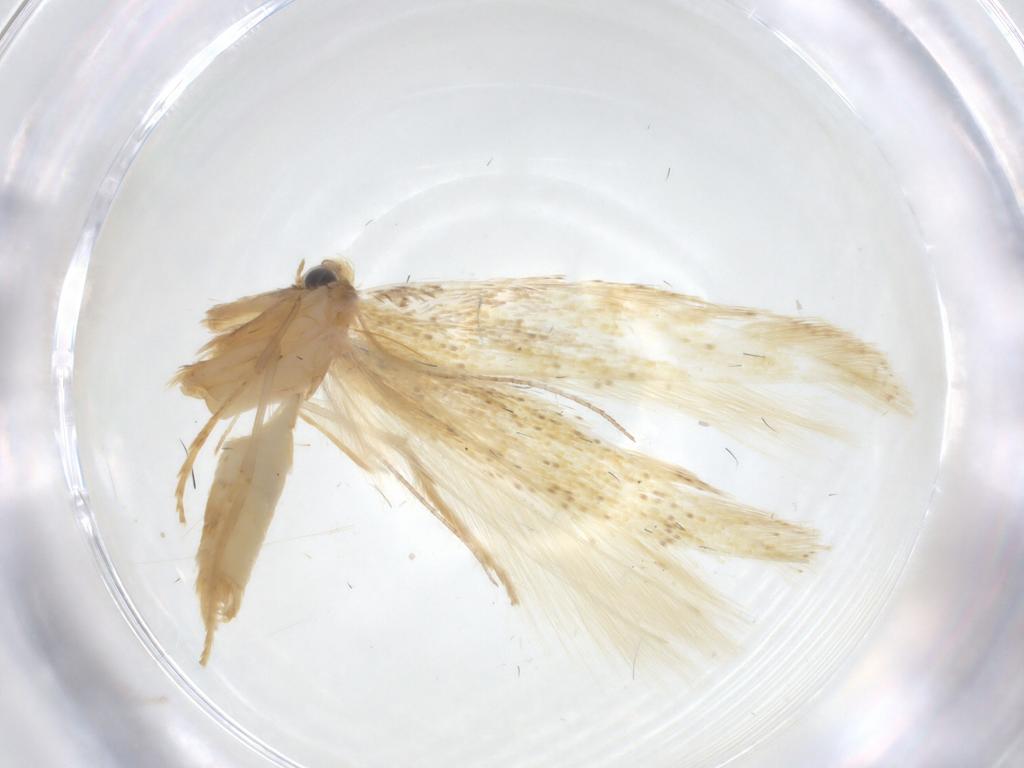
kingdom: Animalia
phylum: Arthropoda
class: Insecta
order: Lepidoptera
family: Tischeriidae
